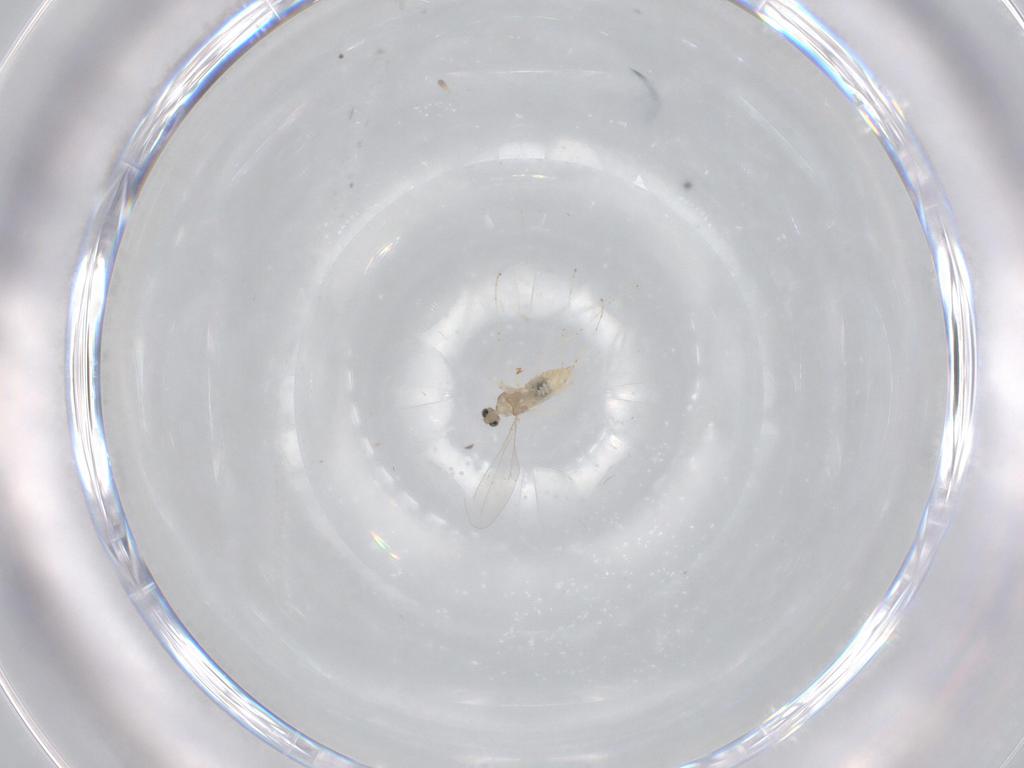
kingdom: Animalia
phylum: Arthropoda
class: Insecta
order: Diptera
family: Cecidomyiidae
